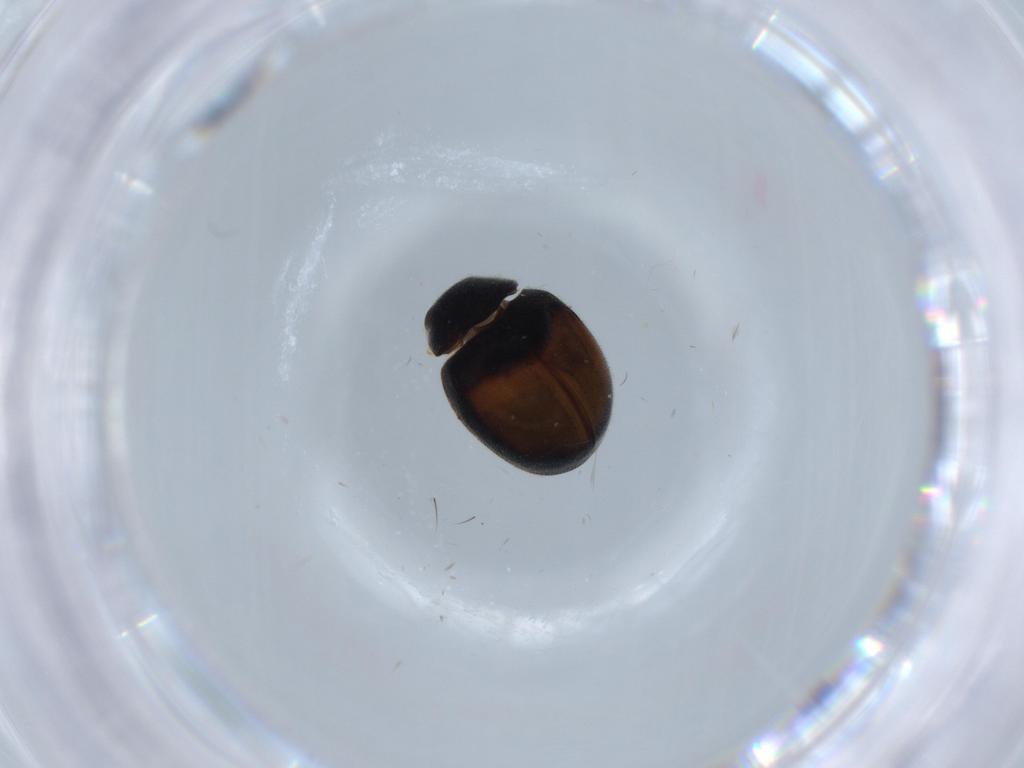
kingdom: Animalia
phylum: Arthropoda
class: Insecta
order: Coleoptera
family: Coccinellidae
